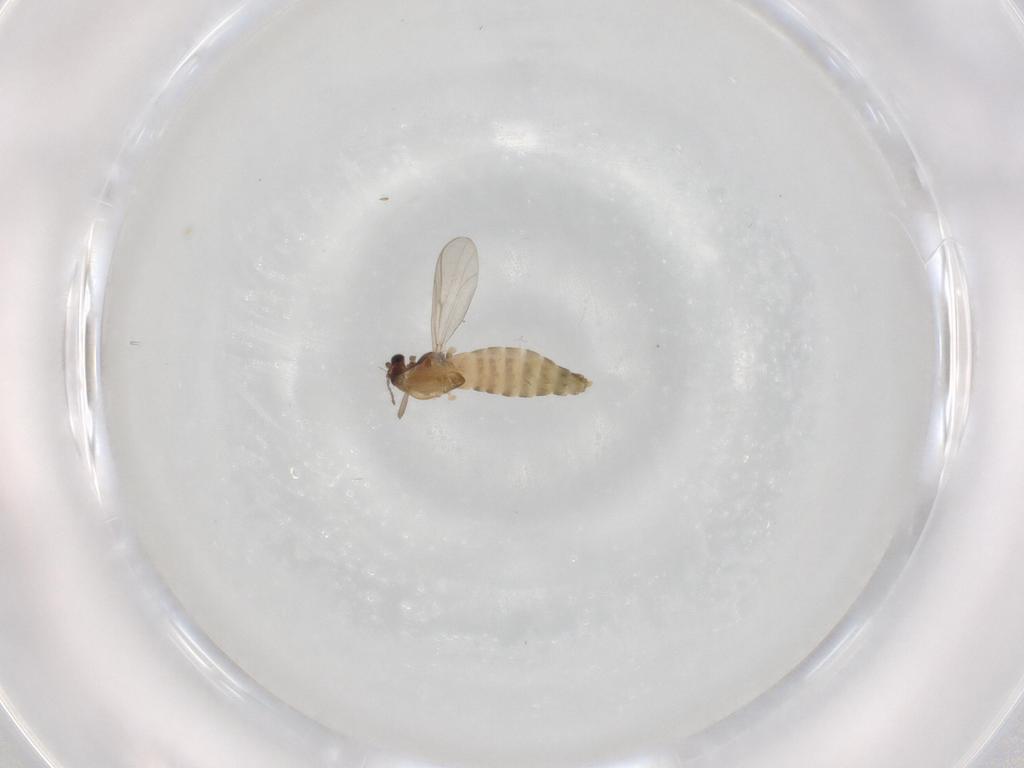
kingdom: Animalia
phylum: Arthropoda
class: Insecta
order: Diptera
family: Chironomidae
